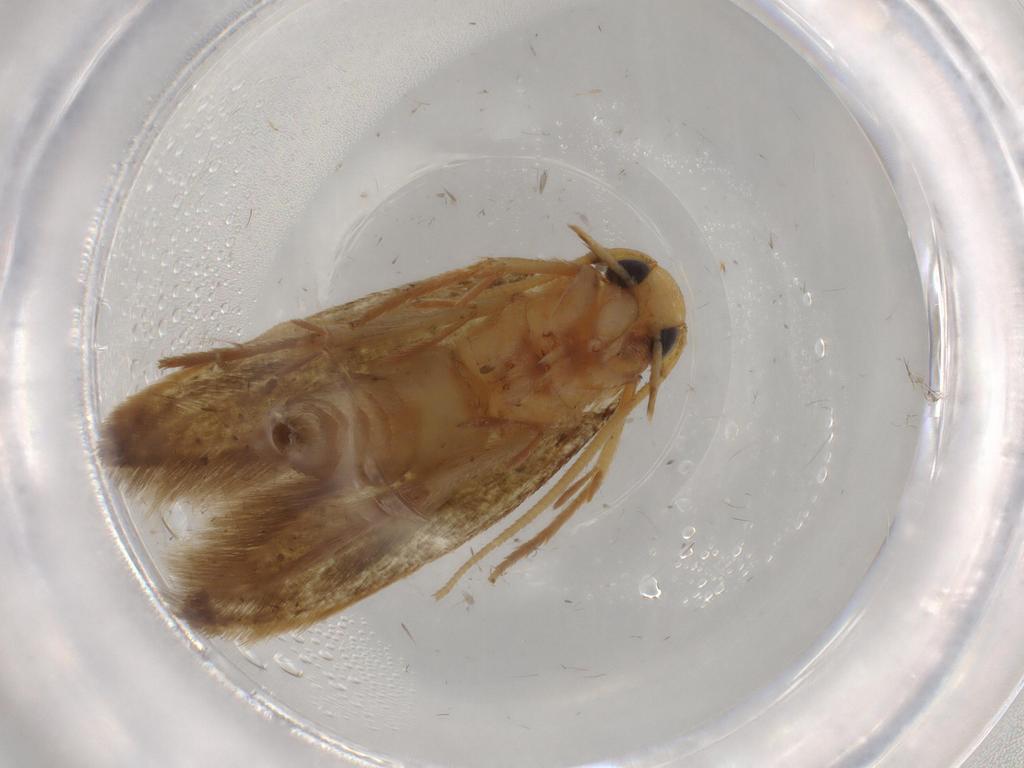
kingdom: Animalia
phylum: Arthropoda
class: Insecta
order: Lepidoptera
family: Tineidae
